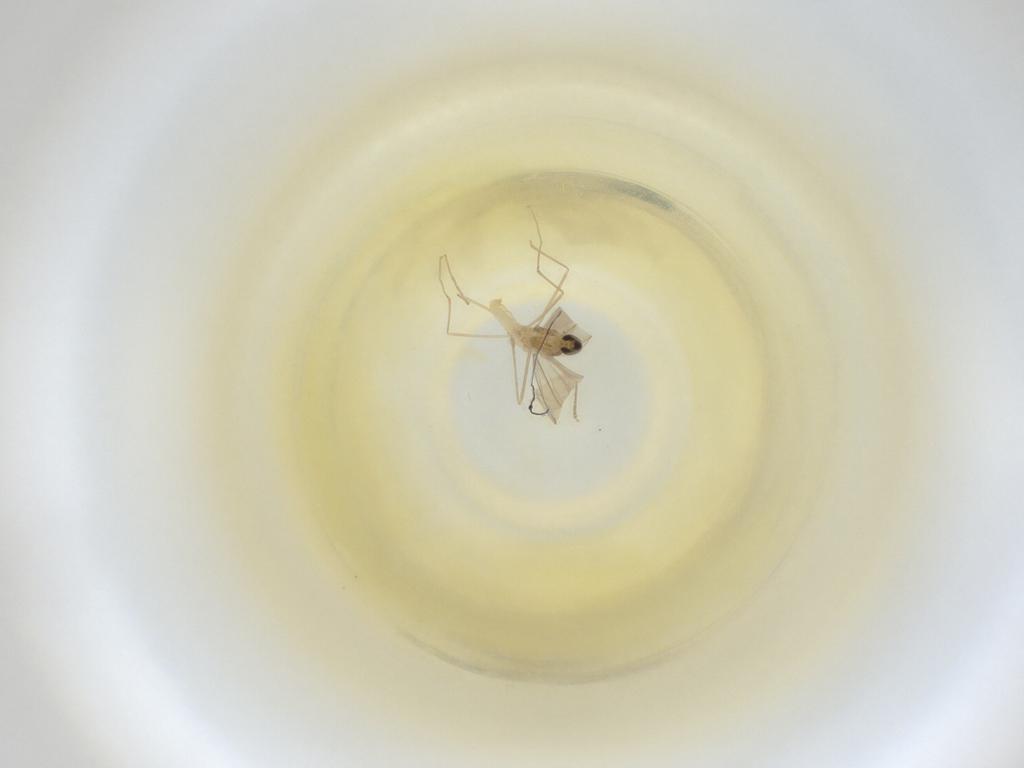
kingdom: Animalia
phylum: Arthropoda
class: Insecta
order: Diptera
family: Cecidomyiidae
